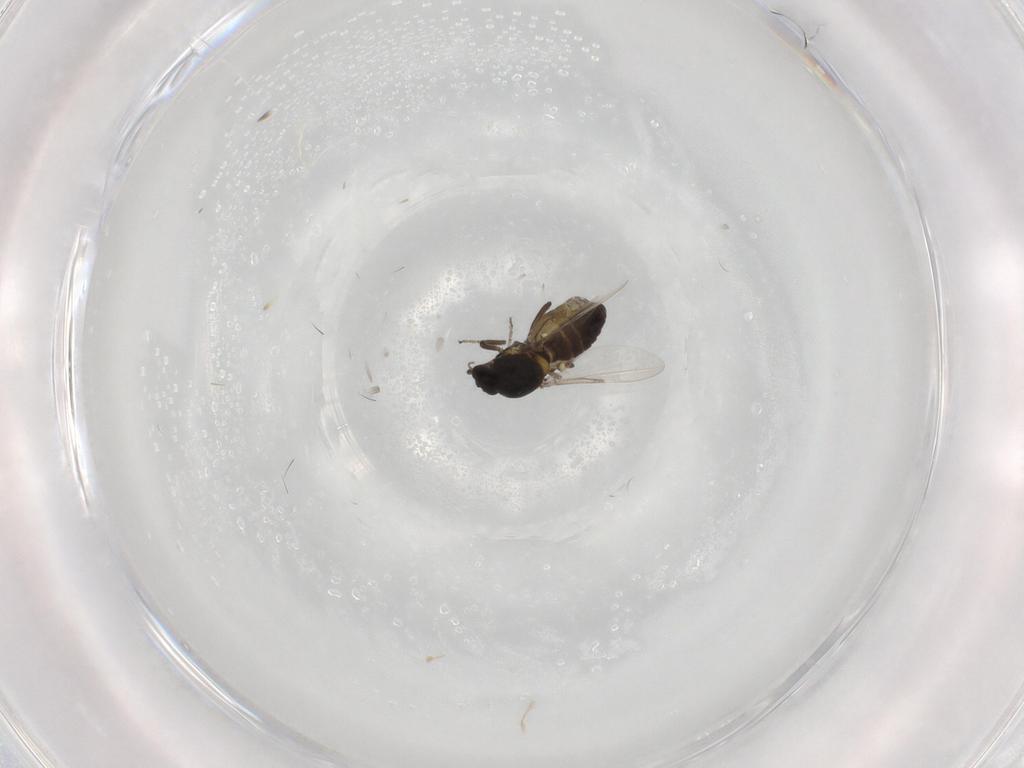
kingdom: Animalia
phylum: Arthropoda
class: Insecta
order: Diptera
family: Ceratopogonidae
